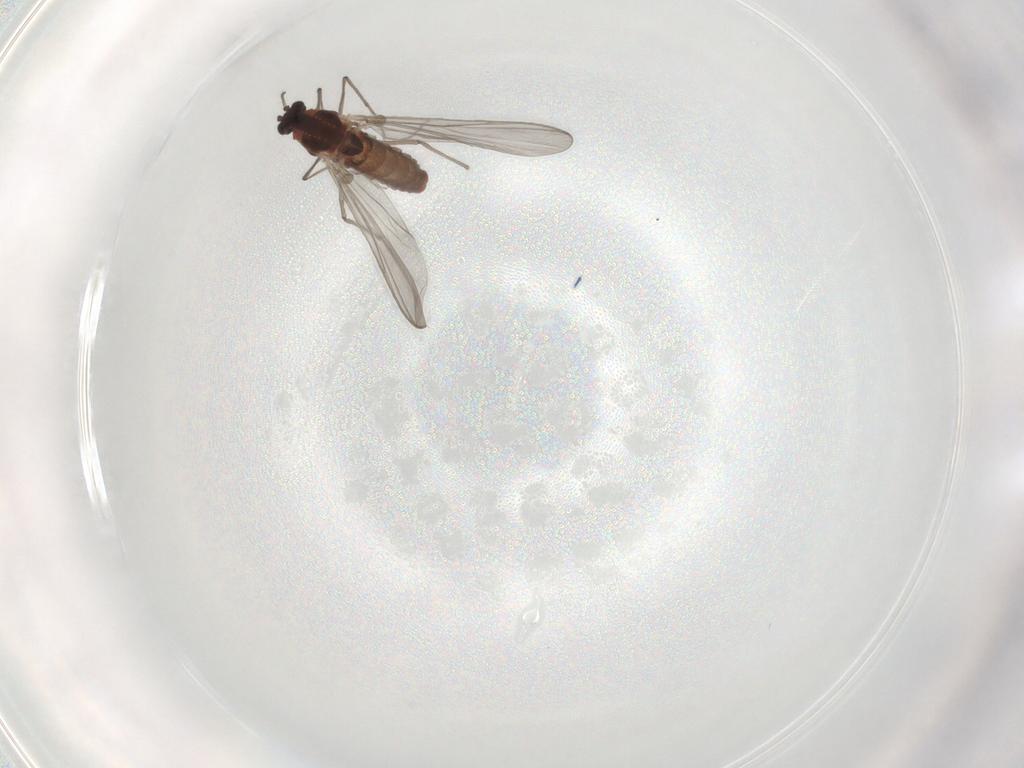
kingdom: Animalia
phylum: Arthropoda
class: Insecta
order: Diptera
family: Chironomidae
